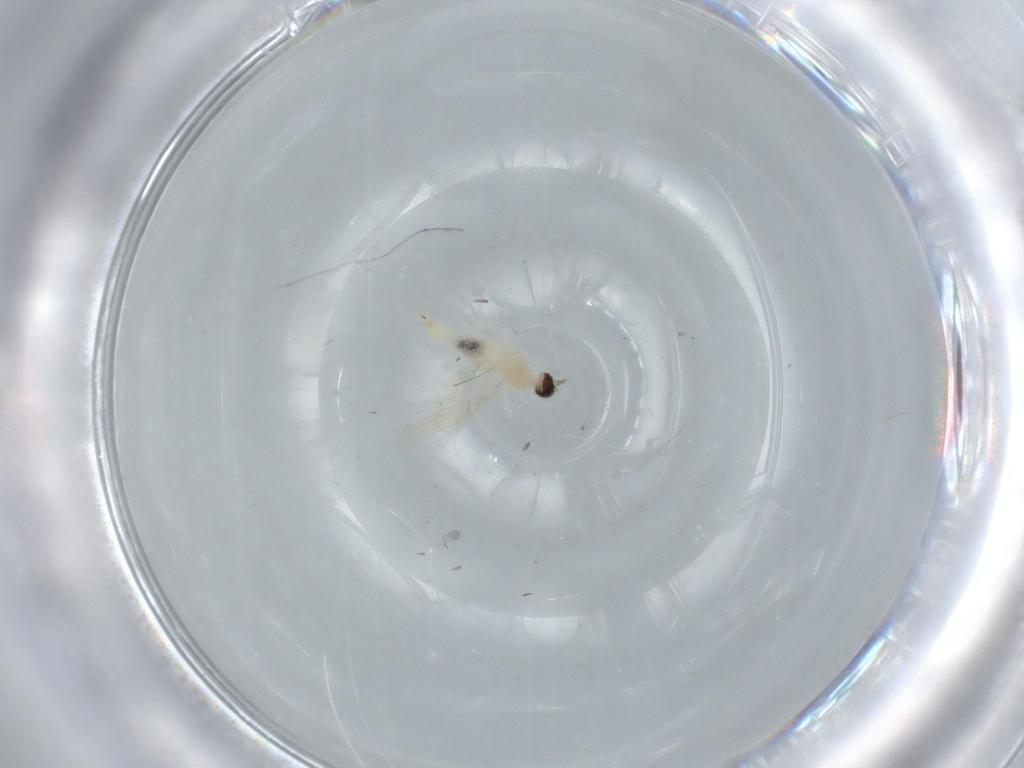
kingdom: Animalia
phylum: Arthropoda
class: Insecta
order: Diptera
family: Cecidomyiidae
